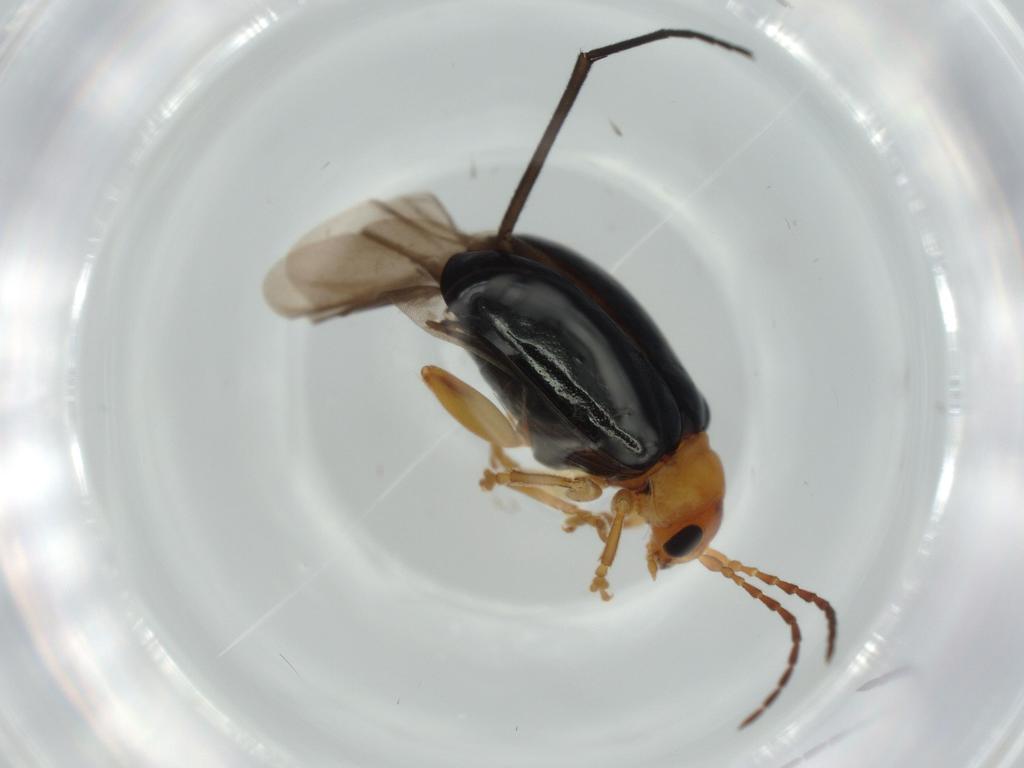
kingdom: Animalia
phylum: Arthropoda
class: Insecta
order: Coleoptera
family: Chrysomelidae
